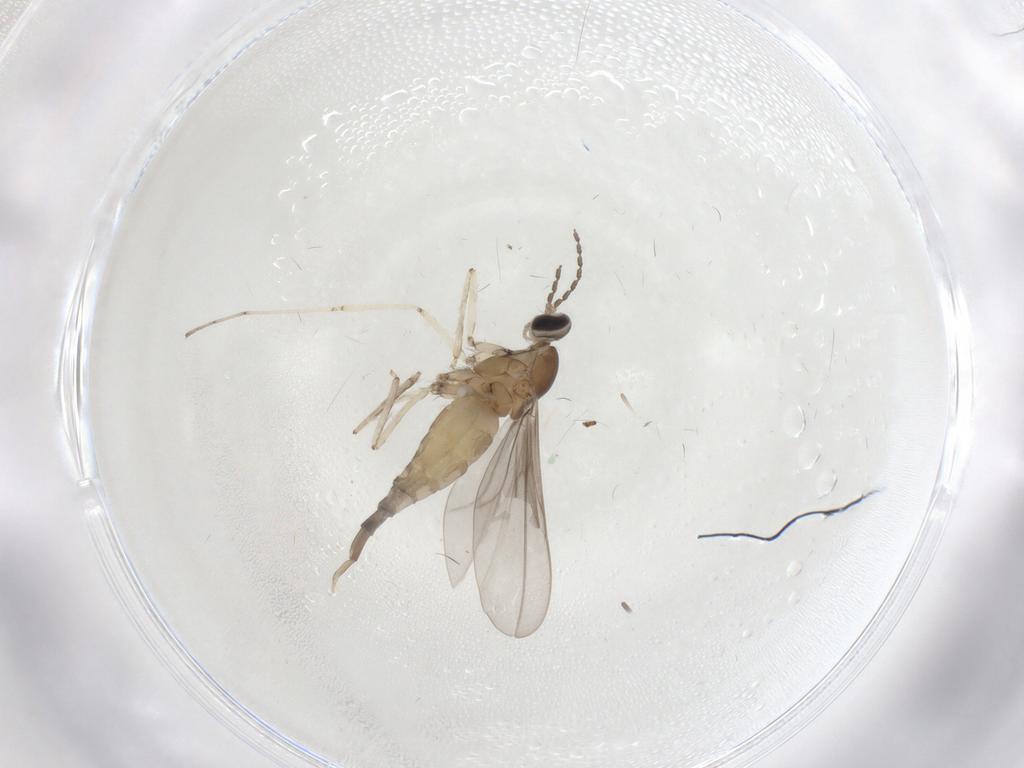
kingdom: Animalia
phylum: Arthropoda
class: Insecta
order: Diptera
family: Cecidomyiidae
